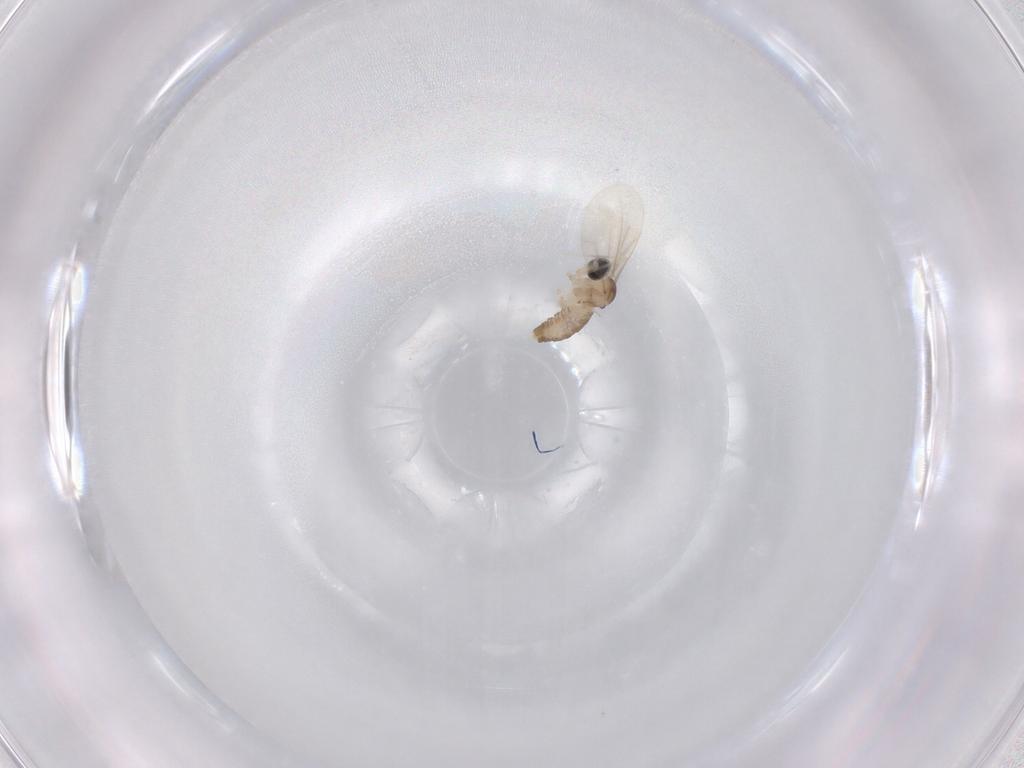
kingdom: Animalia
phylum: Arthropoda
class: Insecta
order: Diptera
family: Cecidomyiidae
